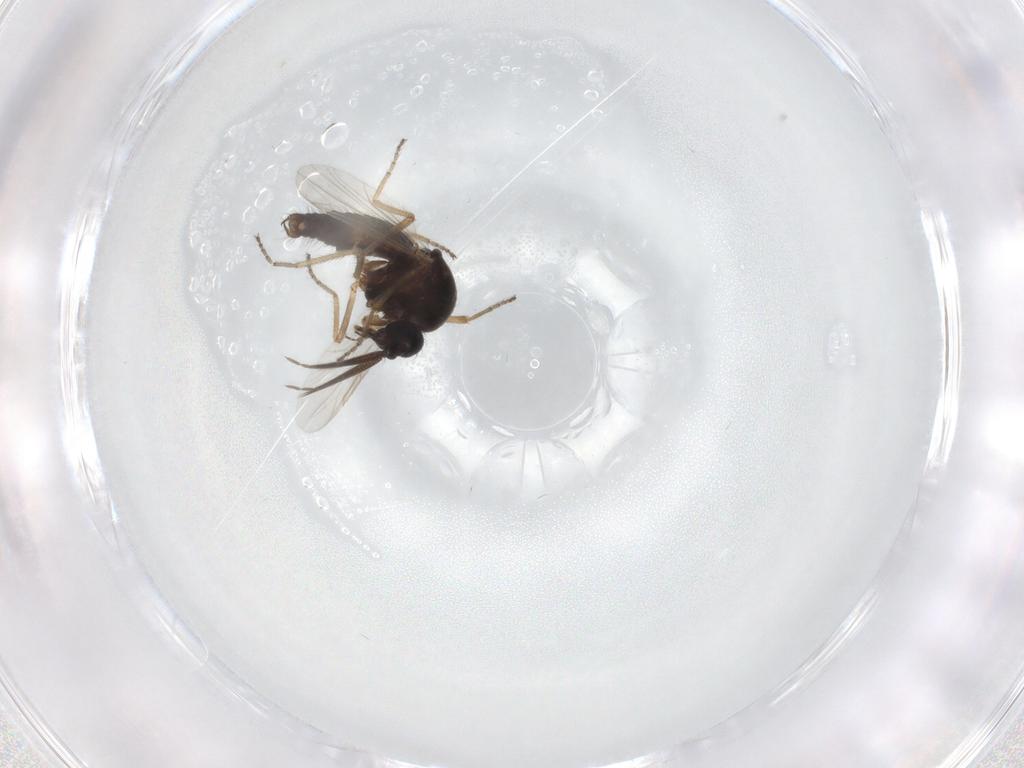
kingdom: Animalia
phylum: Arthropoda
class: Insecta
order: Diptera
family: Ceratopogonidae
